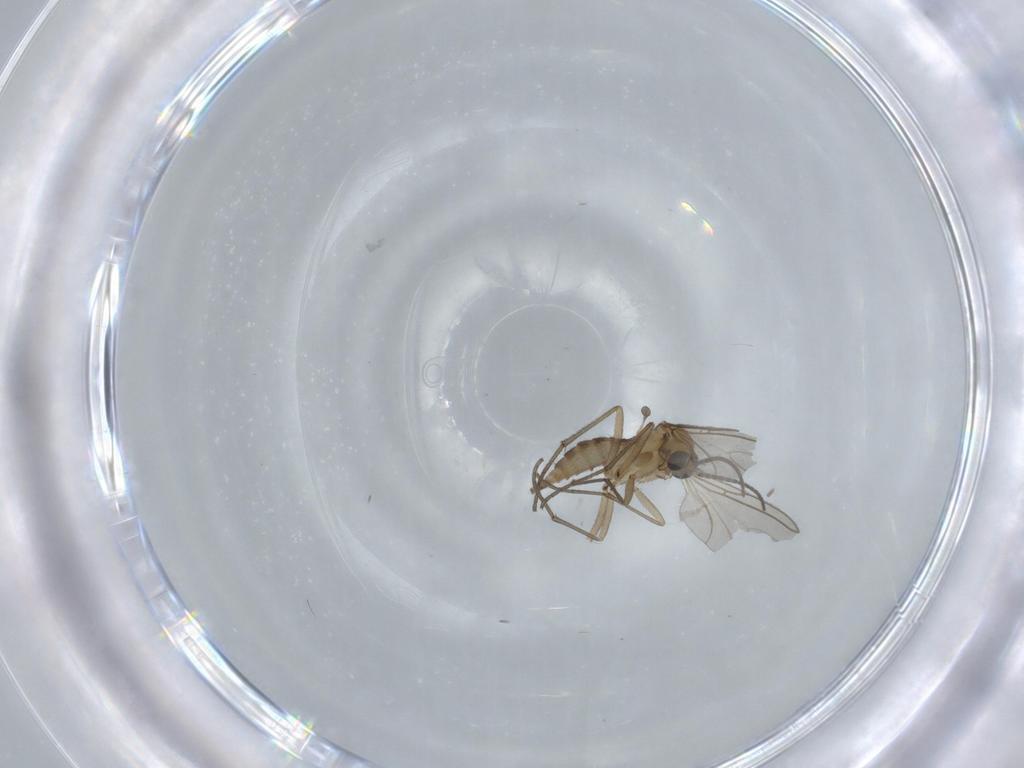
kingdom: Animalia
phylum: Arthropoda
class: Insecta
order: Diptera
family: Sciaridae
